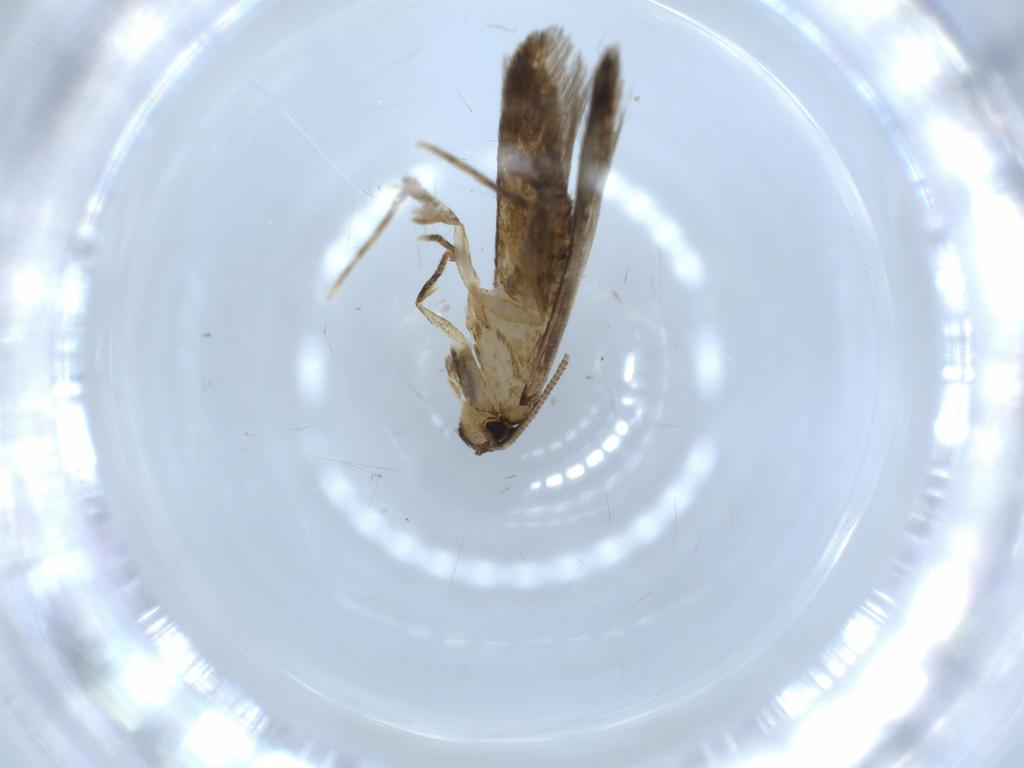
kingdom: Animalia
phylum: Arthropoda
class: Insecta
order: Lepidoptera
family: Tineidae
